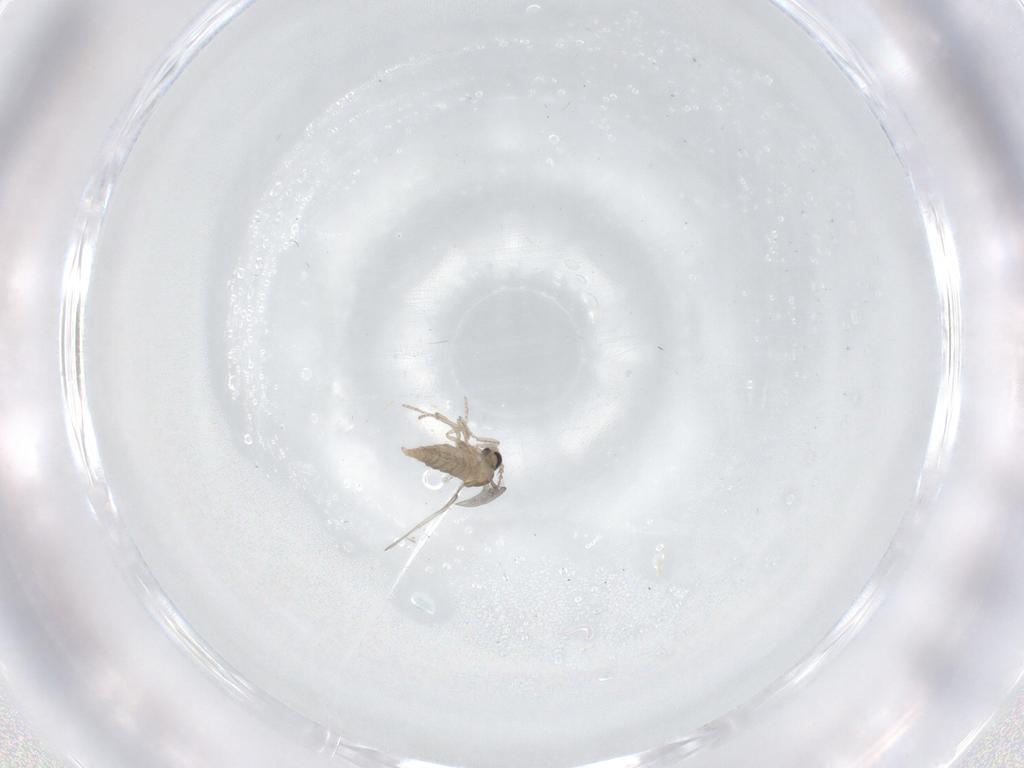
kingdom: Animalia
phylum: Arthropoda
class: Insecta
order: Diptera
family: Cecidomyiidae
